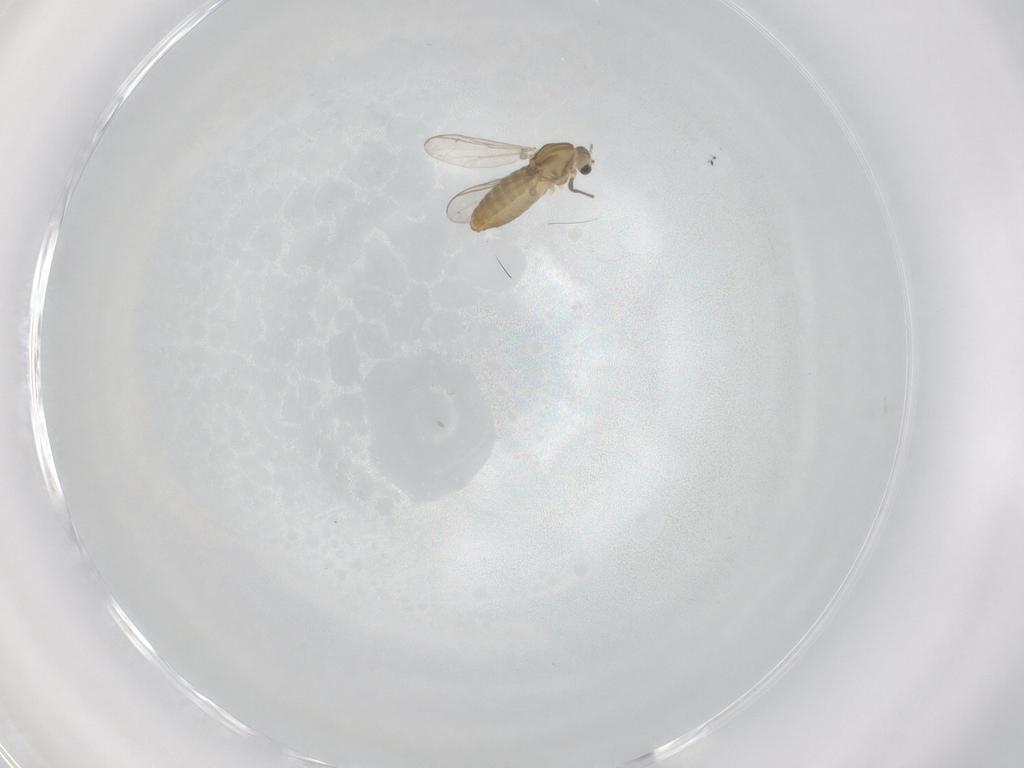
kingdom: Animalia
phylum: Arthropoda
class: Insecta
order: Diptera
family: Chironomidae
